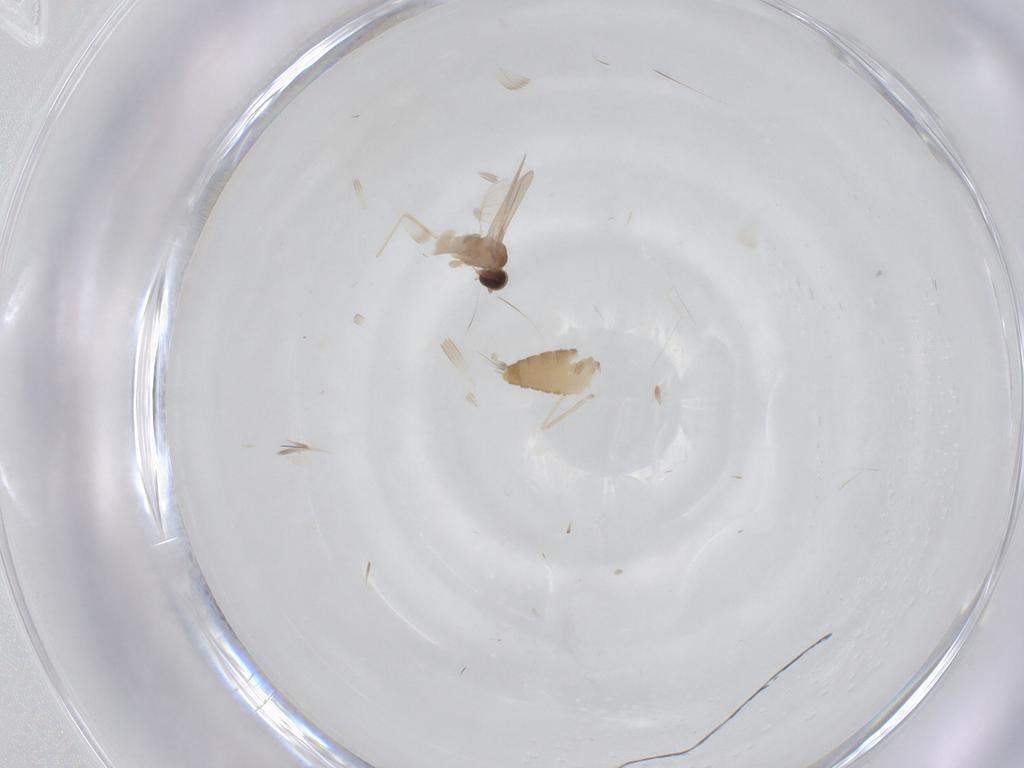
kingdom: Animalia
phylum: Arthropoda
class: Insecta
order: Diptera
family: Cecidomyiidae
